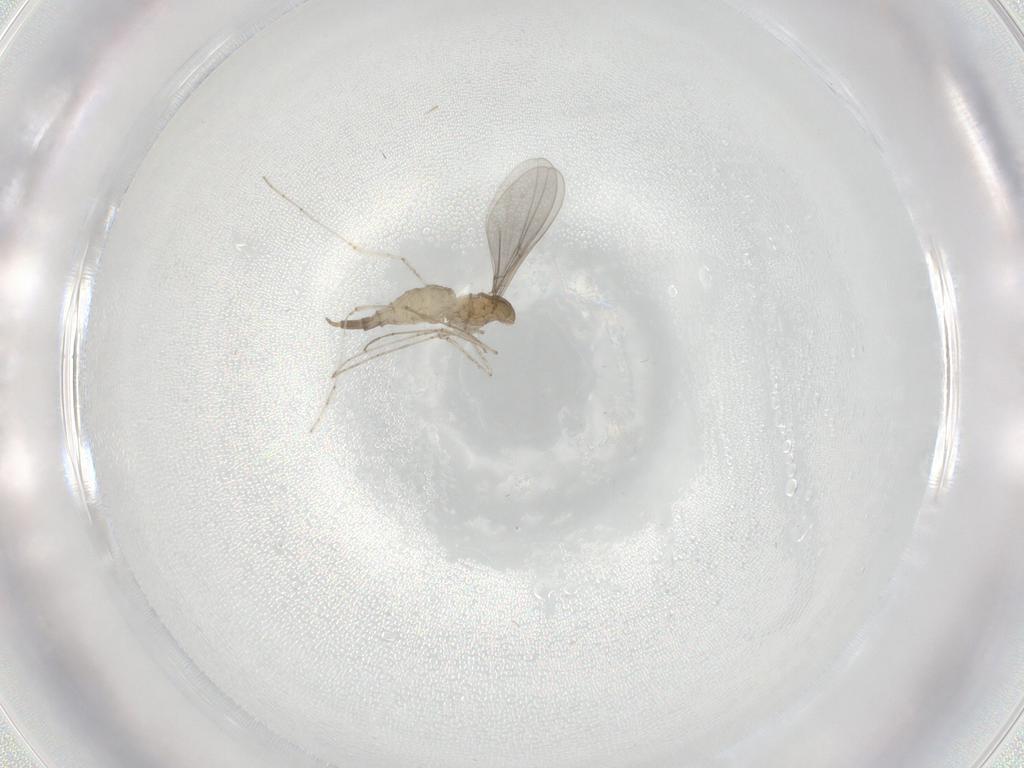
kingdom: Animalia
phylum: Arthropoda
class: Insecta
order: Diptera
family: Cecidomyiidae
